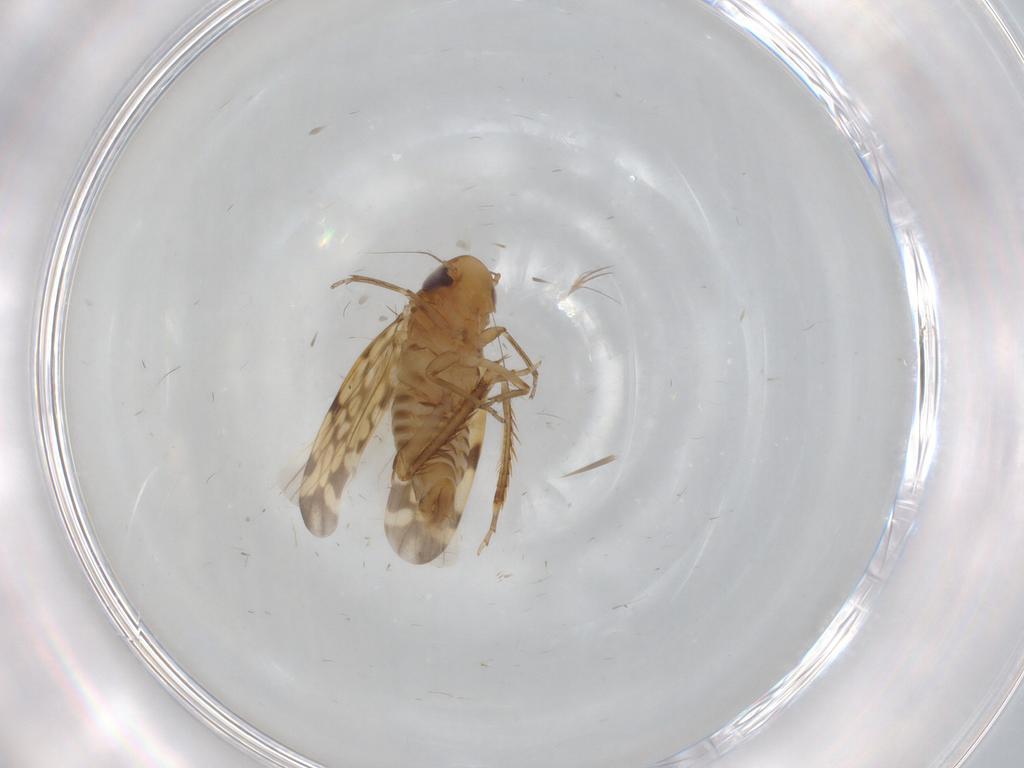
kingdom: Animalia
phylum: Arthropoda
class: Insecta
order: Hemiptera
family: Cicadellidae
